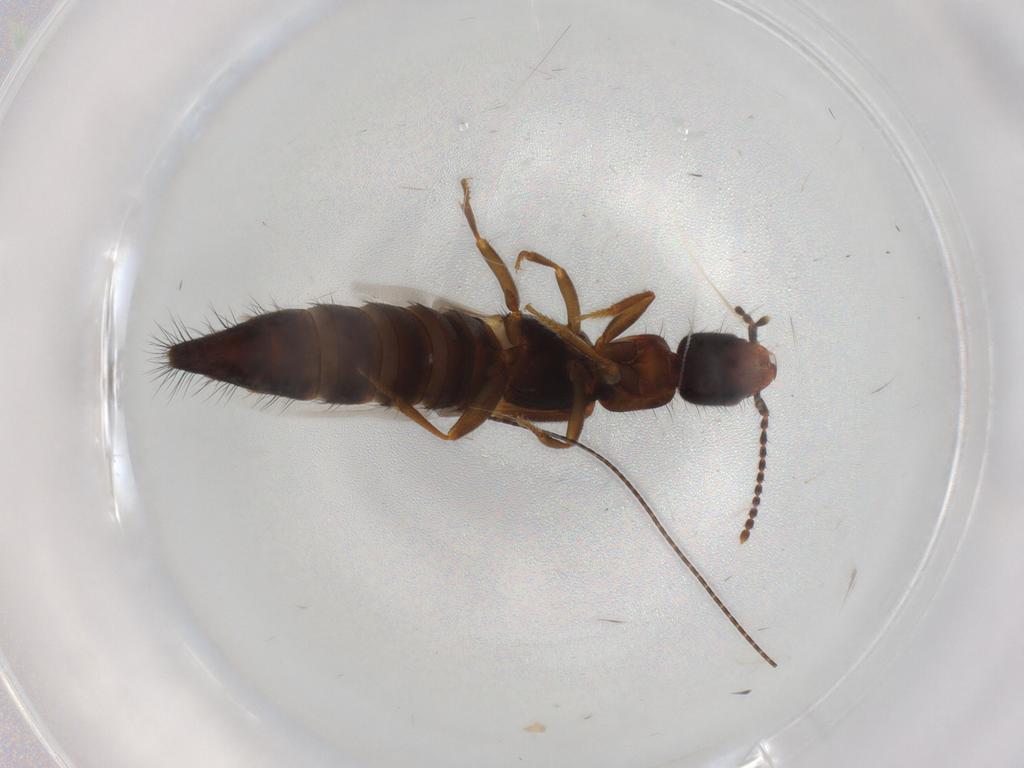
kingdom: Animalia
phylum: Arthropoda
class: Insecta
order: Coleoptera
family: Staphylinidae
